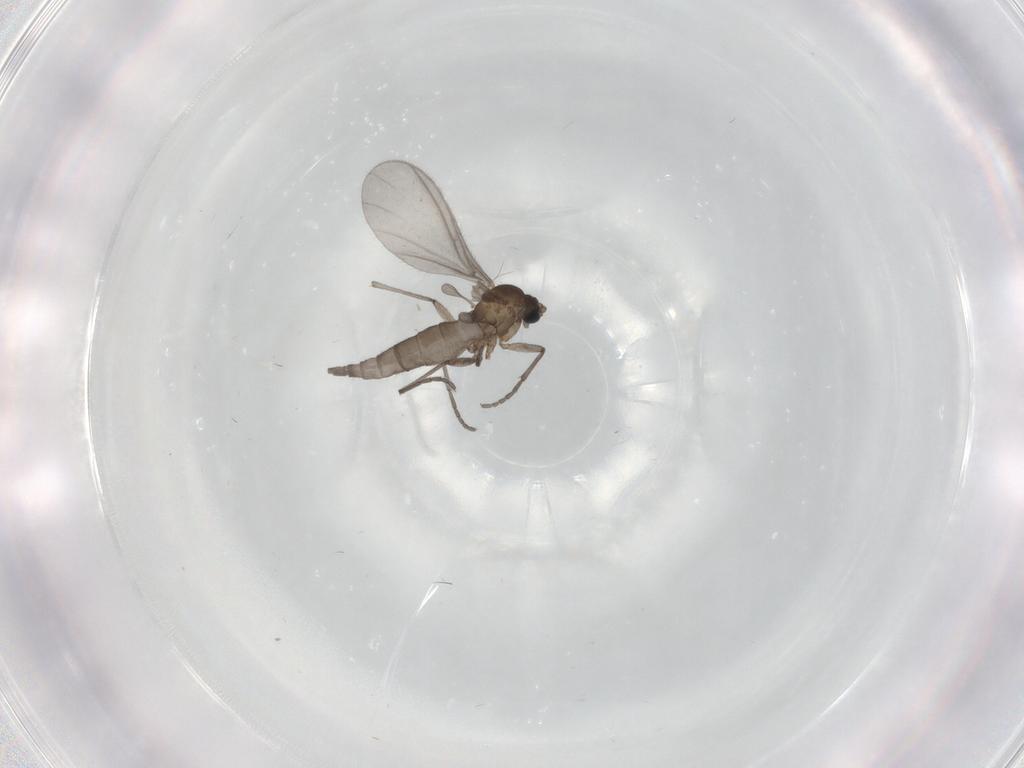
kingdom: Animalia
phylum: Arthropoda
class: Insecta
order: Diptera
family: Sciaridae
